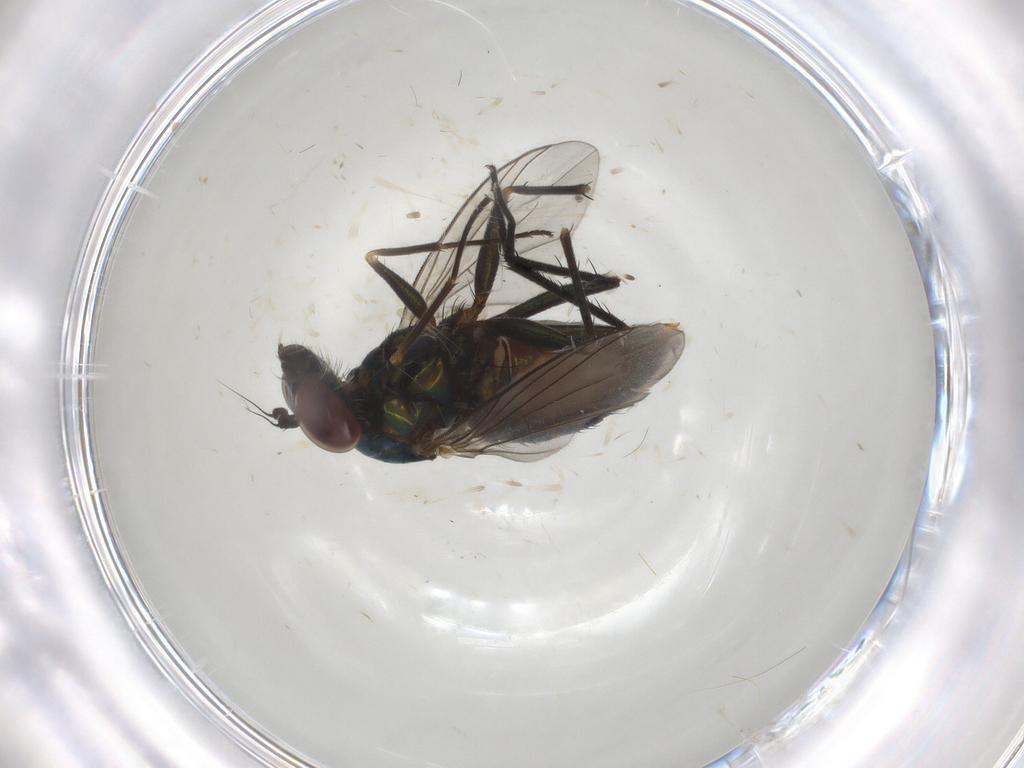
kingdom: Animalia
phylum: Arthropoda
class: Insecta
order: Diptera
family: Dolichopodidae
